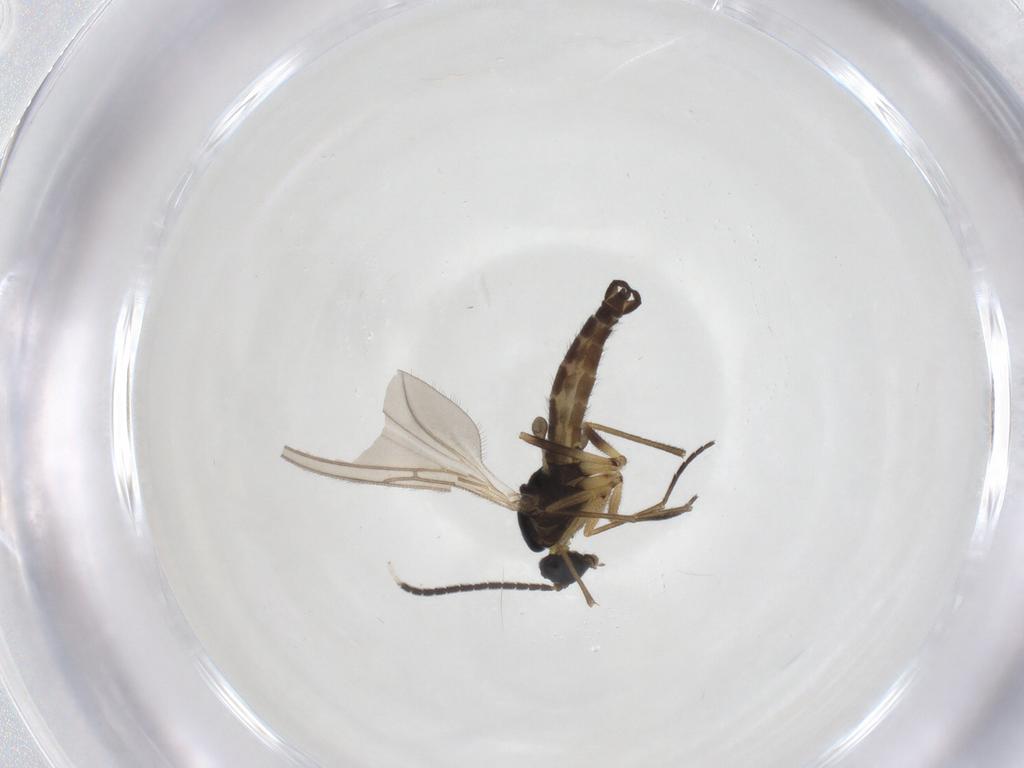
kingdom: Animalia
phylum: Arthropoda
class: Insecta
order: Diptera
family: Sciaridae
